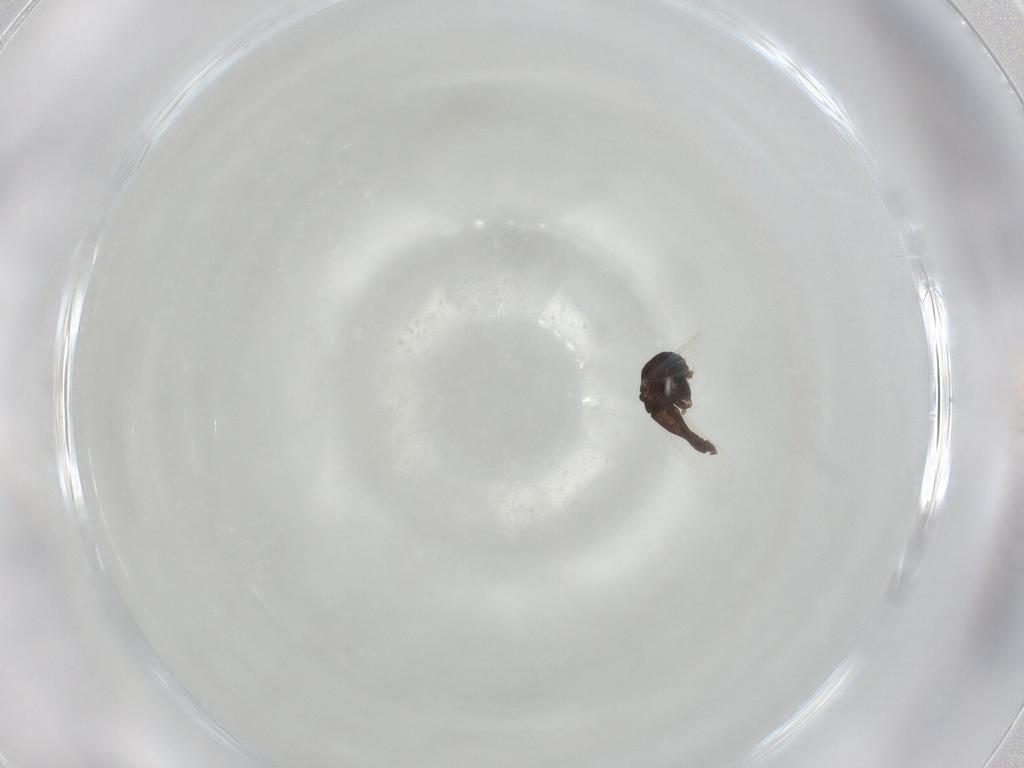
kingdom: Animalia
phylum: Arthropoda
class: Insecta
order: Diptera
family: Chironomidae
